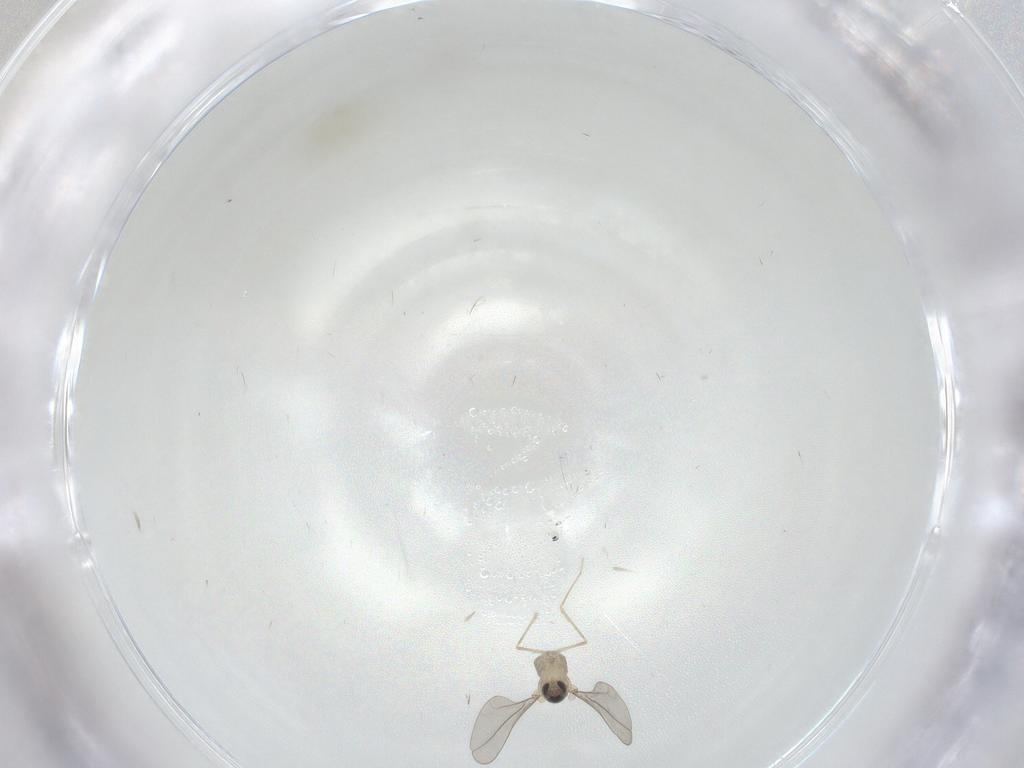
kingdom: Animalia
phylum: Arthropoda
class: Insecta
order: Diptera
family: Cecidomyiidae
